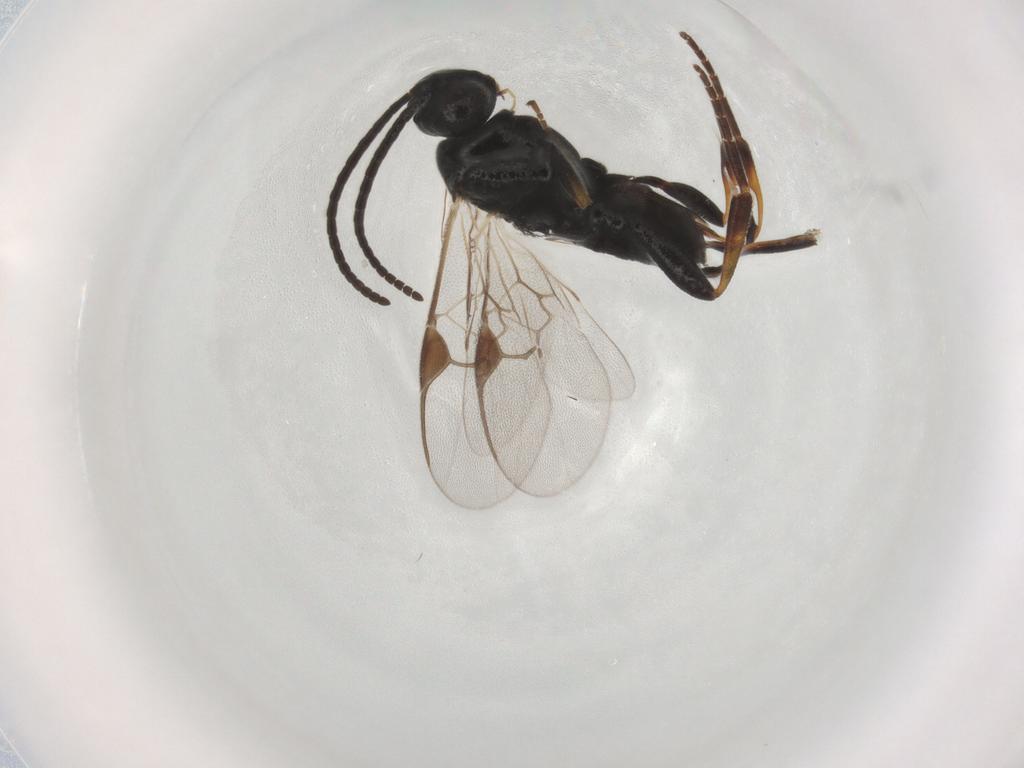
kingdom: Animalia
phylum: Arthropoda
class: Insecta
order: Hymenoptera
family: Braconidae
